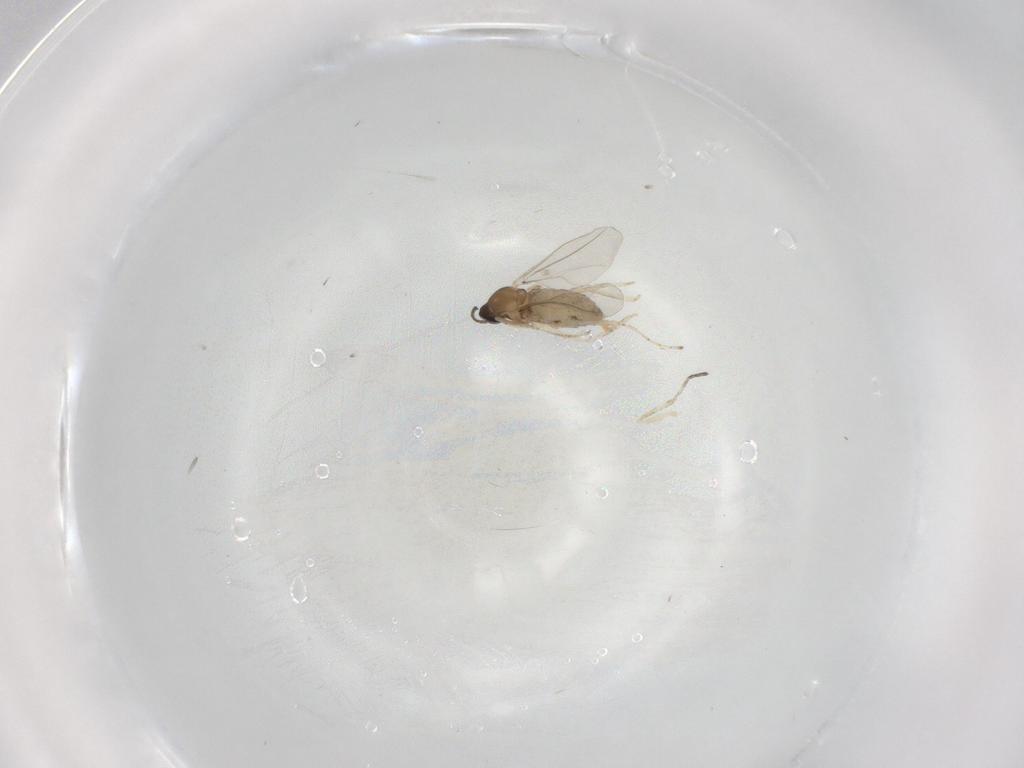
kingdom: Animalia
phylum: Arthropoda
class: Insecta
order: Diptera
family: Cecidomyiidae
